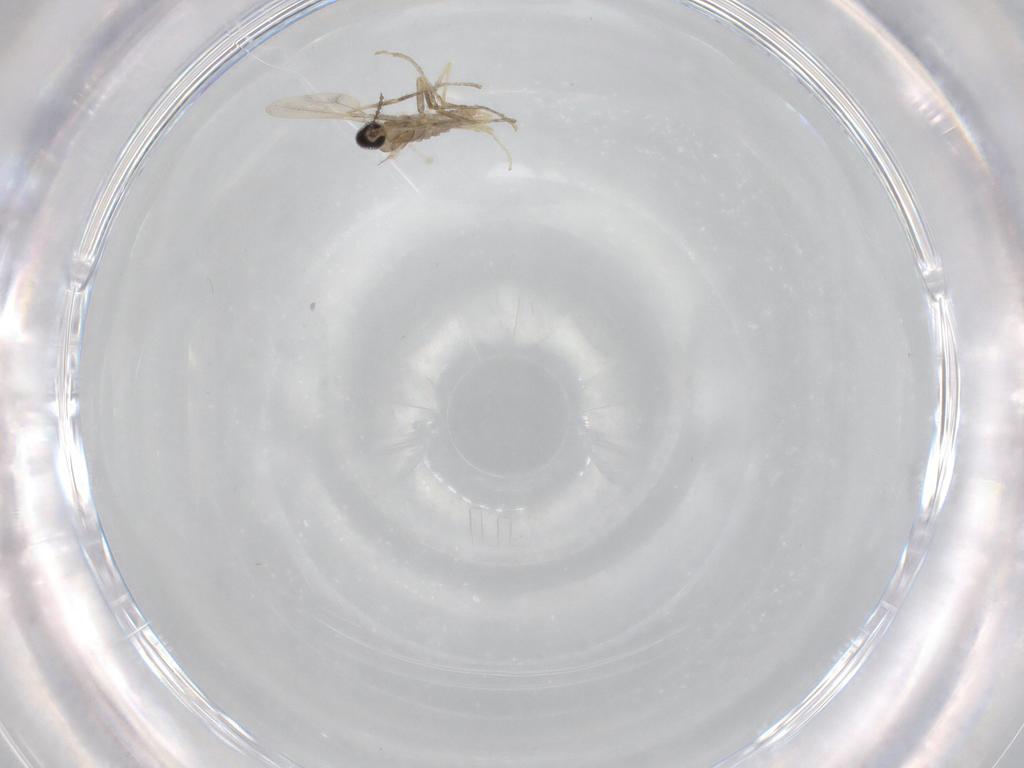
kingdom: Animalia
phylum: Arthropoda
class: Insecta
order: Diptera
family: Cecidomyiidae
